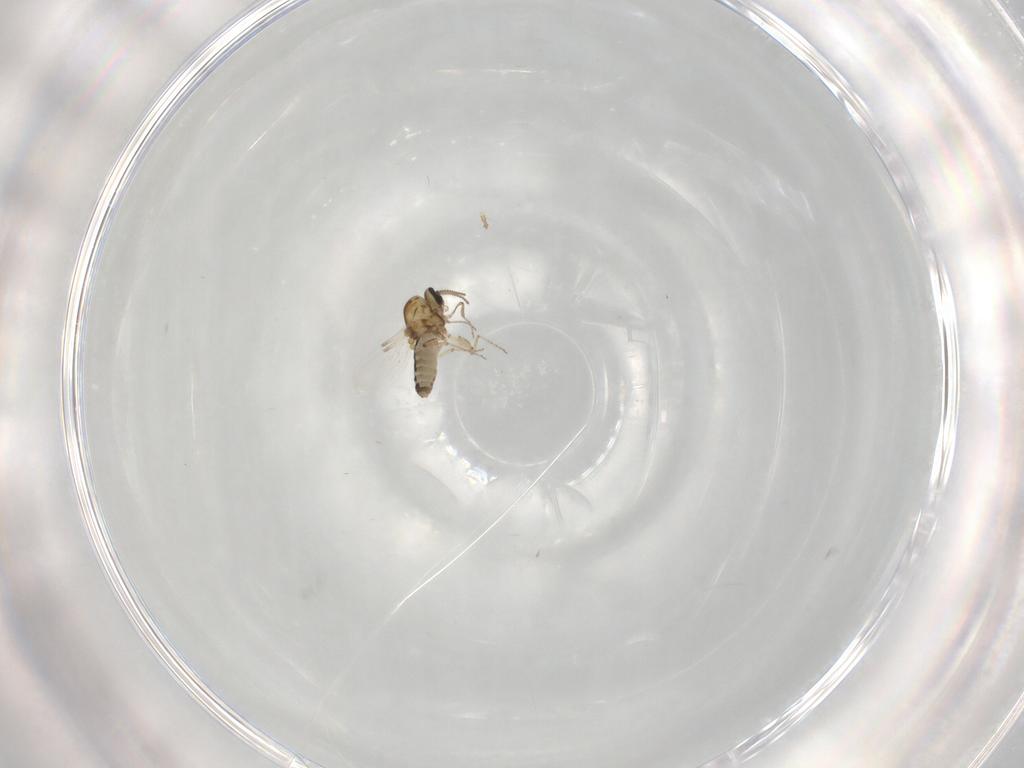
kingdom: Animalia
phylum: Arthropoda
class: Insecta
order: Diptera
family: Ceratopogonidae
